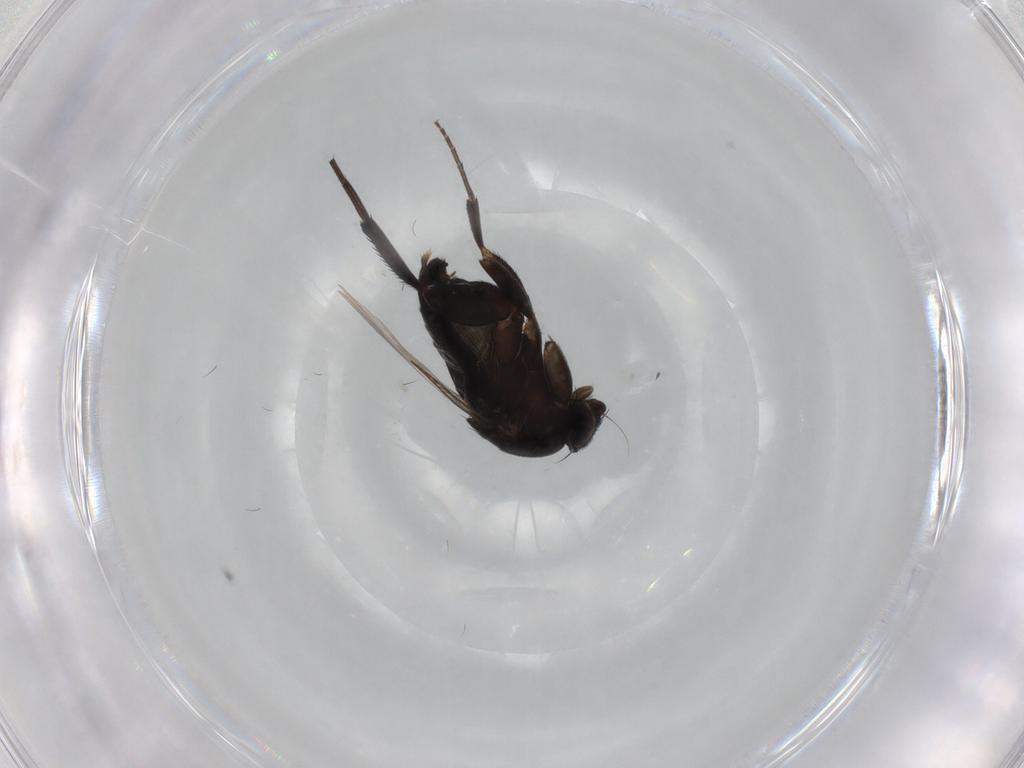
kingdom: Animalia
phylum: Arthropoda
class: Insecta
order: Diptera
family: Phoridae
